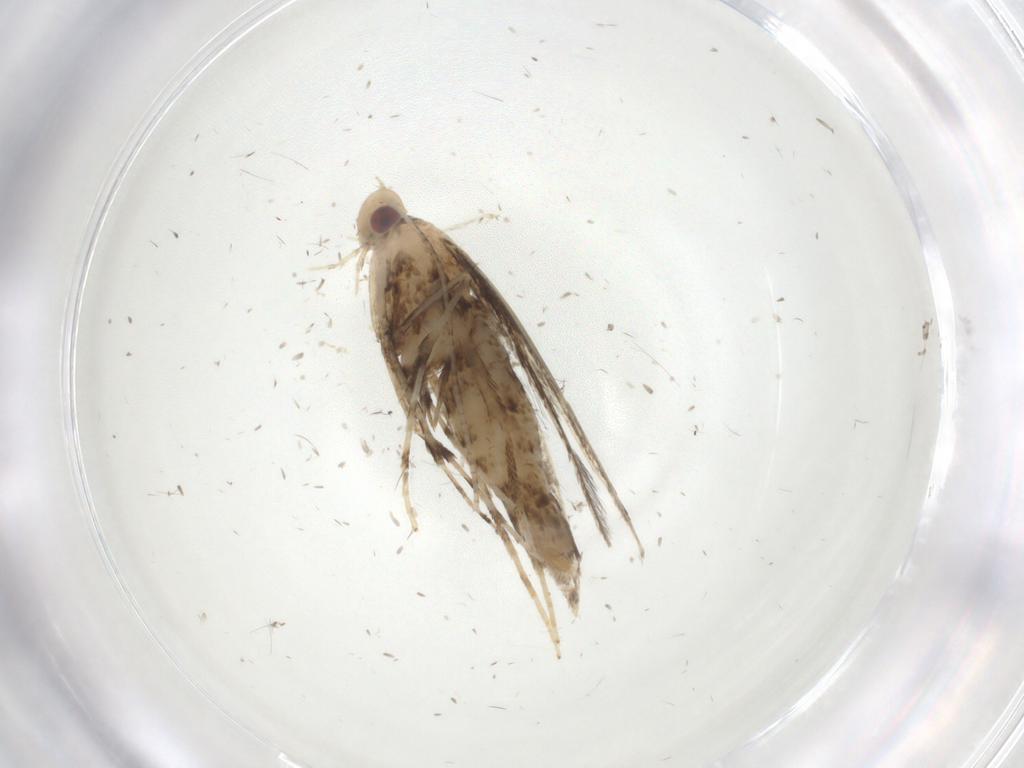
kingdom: Animalia
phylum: Arthropoda
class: Insecta
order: Lepidoptera
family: Gracillariidae
